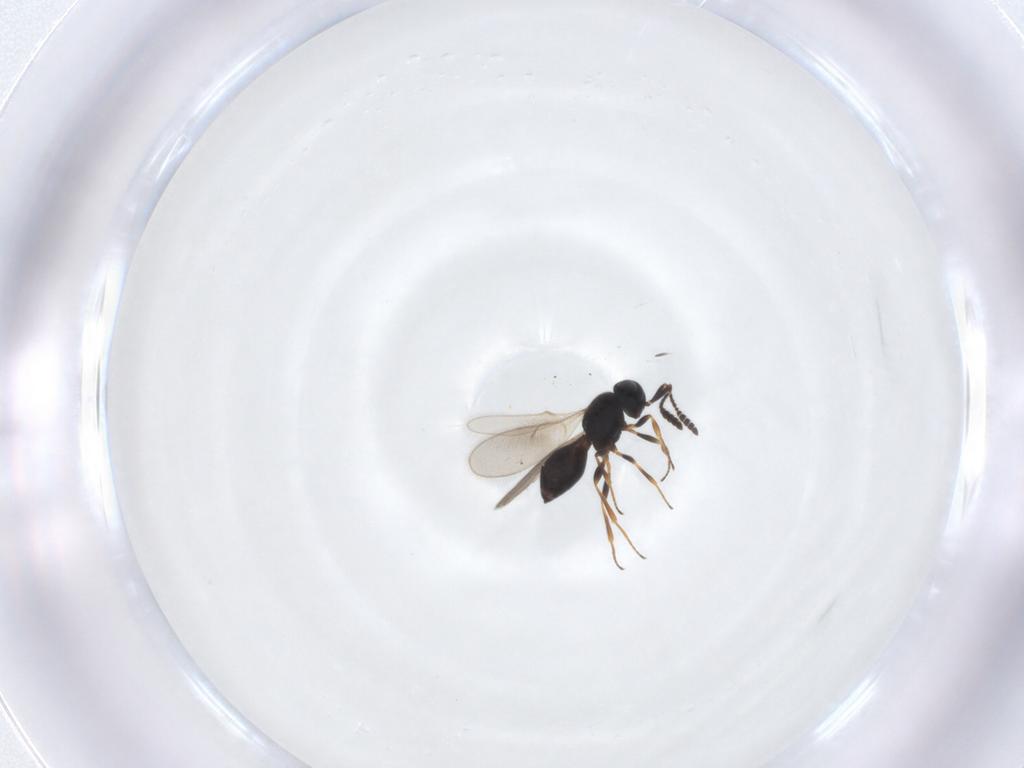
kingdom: Animalia
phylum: Arthropoda
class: Insecta
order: Hymenoptera
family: Scelionidae
